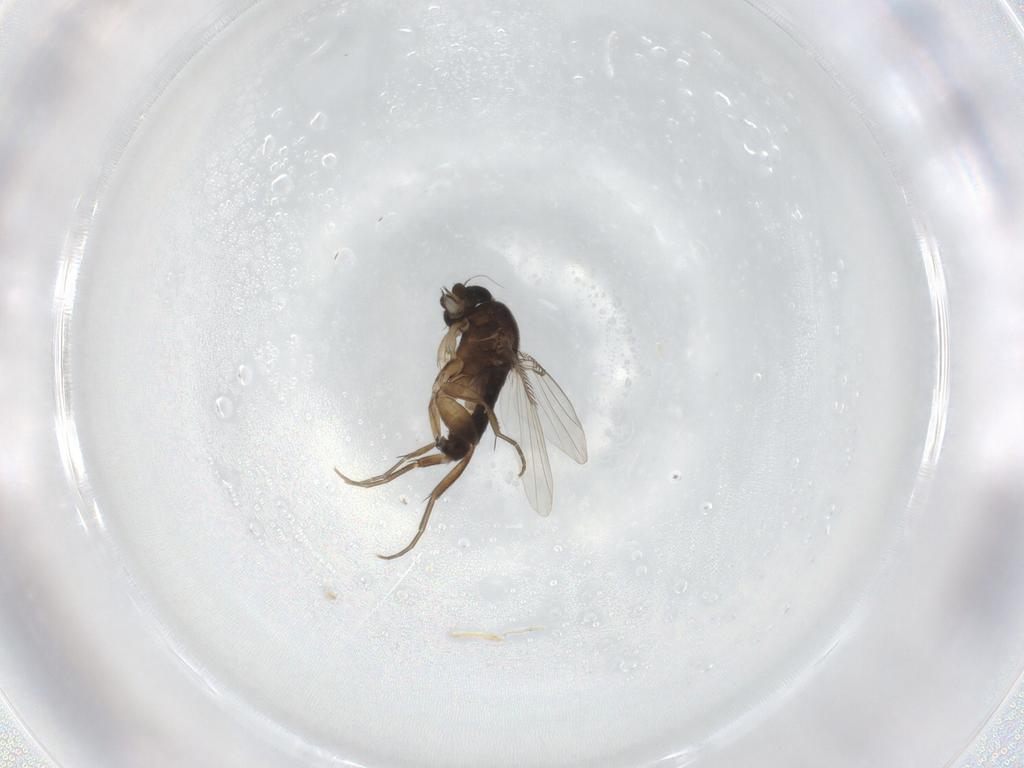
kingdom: Animalia
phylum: Arthropoda
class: Insecta
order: Diptera
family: Phoridae
